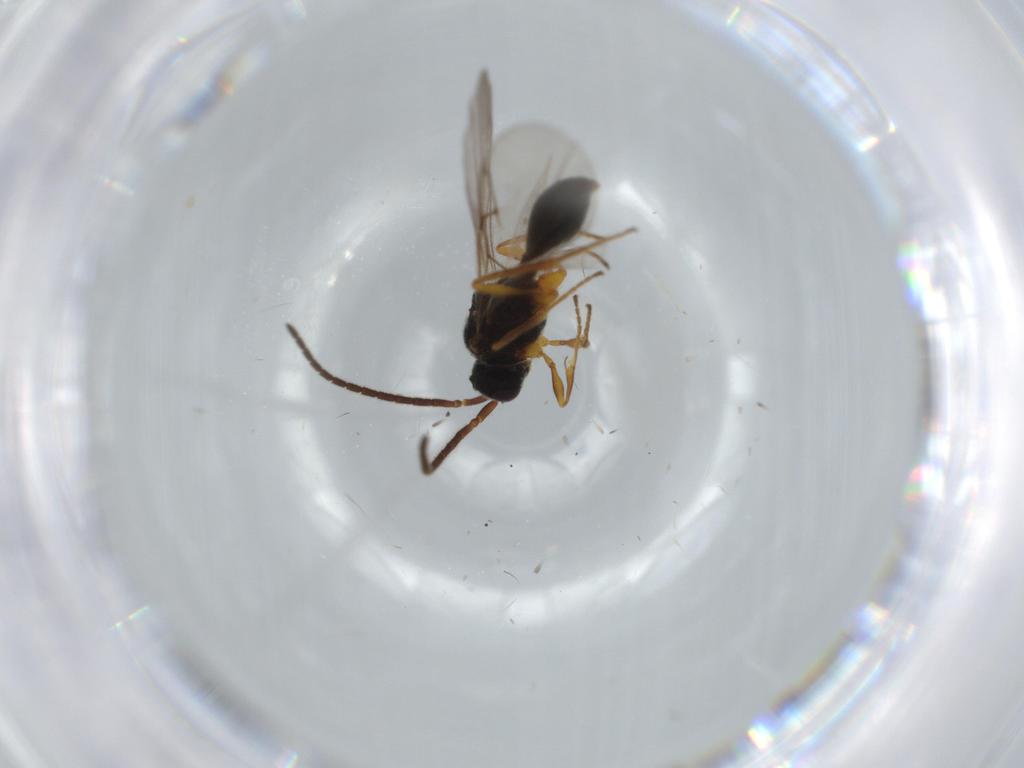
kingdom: Animalia
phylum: Arthropoda
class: Insecta
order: Hymenoptera
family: Diapriidae
